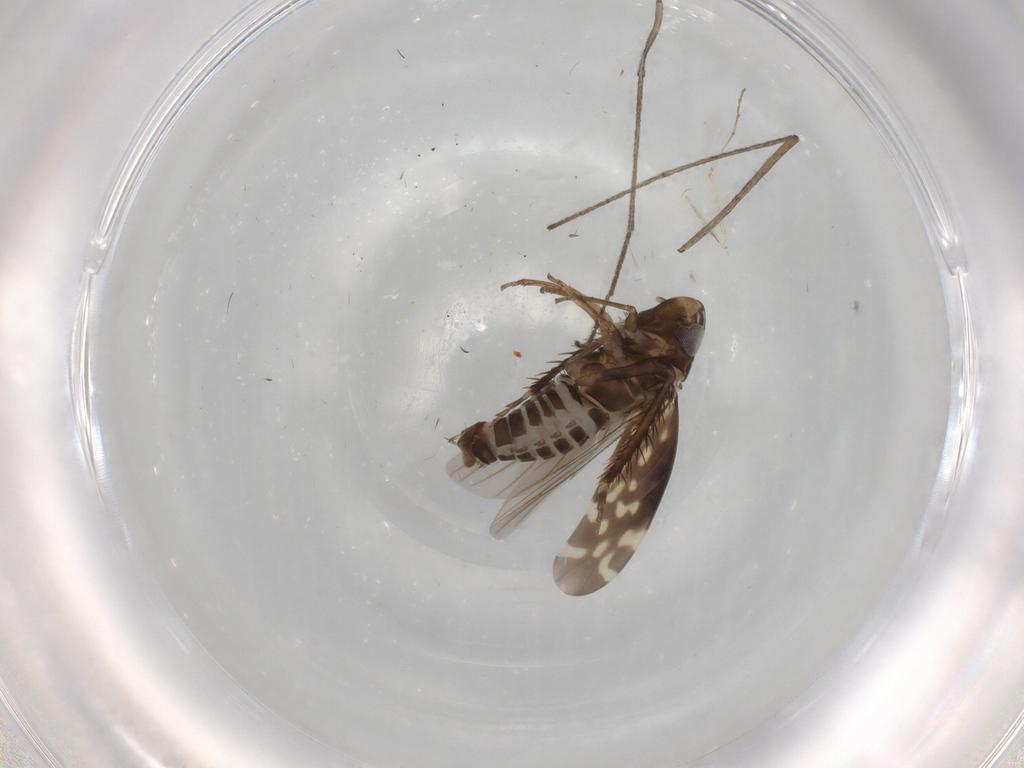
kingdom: Animalia
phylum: Arthropoda
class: Insecta
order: Hemiptera
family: Cicadellidae
